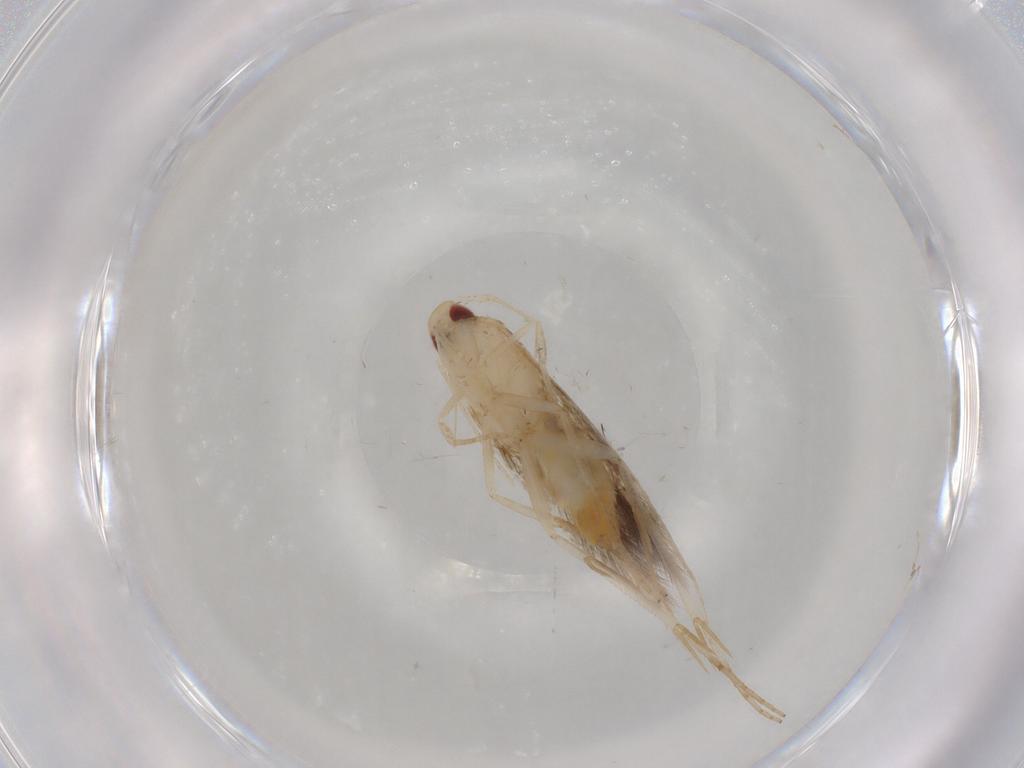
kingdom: Animalia
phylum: Arthropoda
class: Insecta
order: Lepidoptera
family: Gelechiidae
